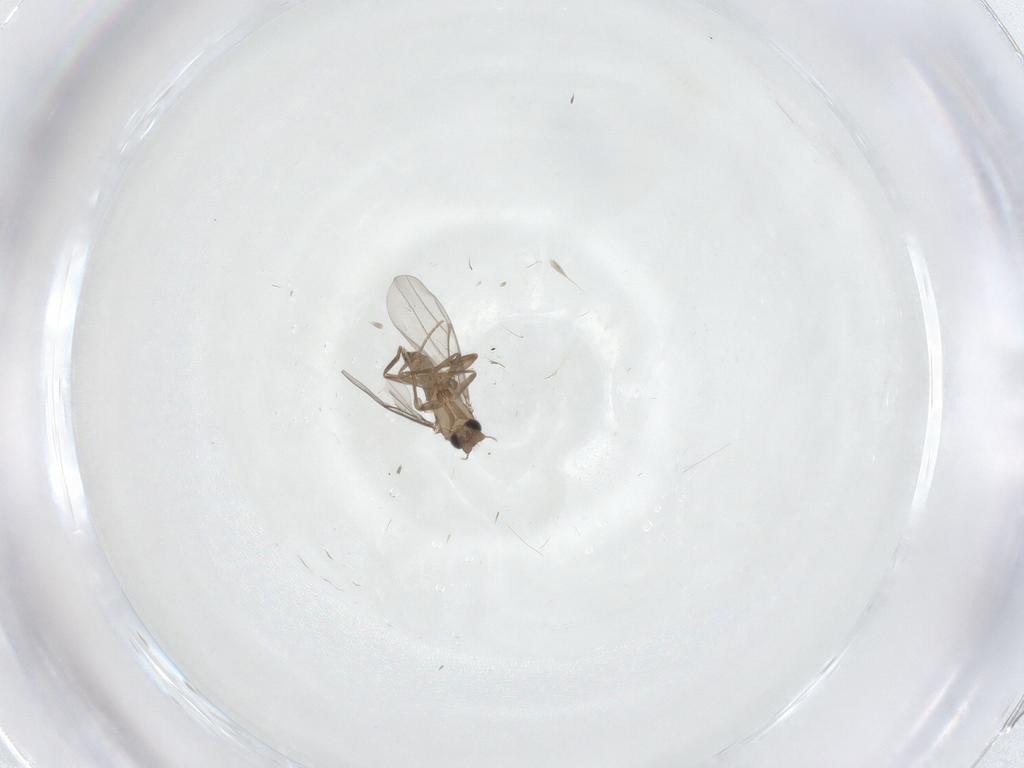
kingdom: Animalia
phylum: Arthropoda
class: Insecta
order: Diptera
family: Cecidomyiidae
